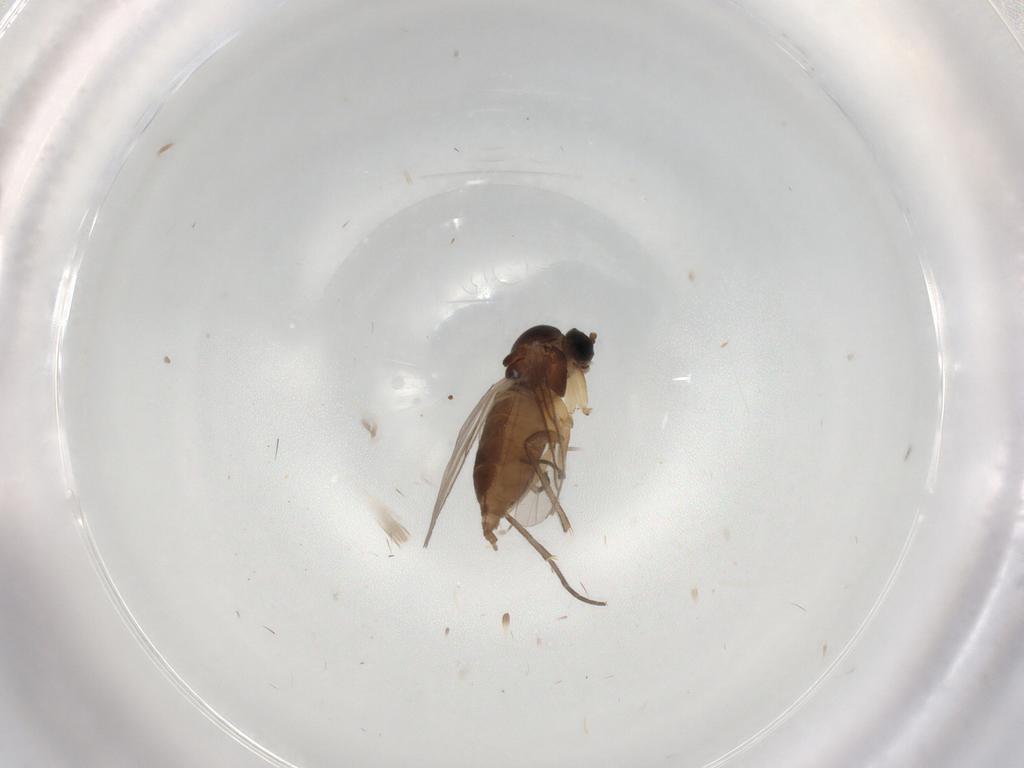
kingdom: Animalia
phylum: Arthropoda
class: Insecta
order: Diptera
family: Sciaridae
